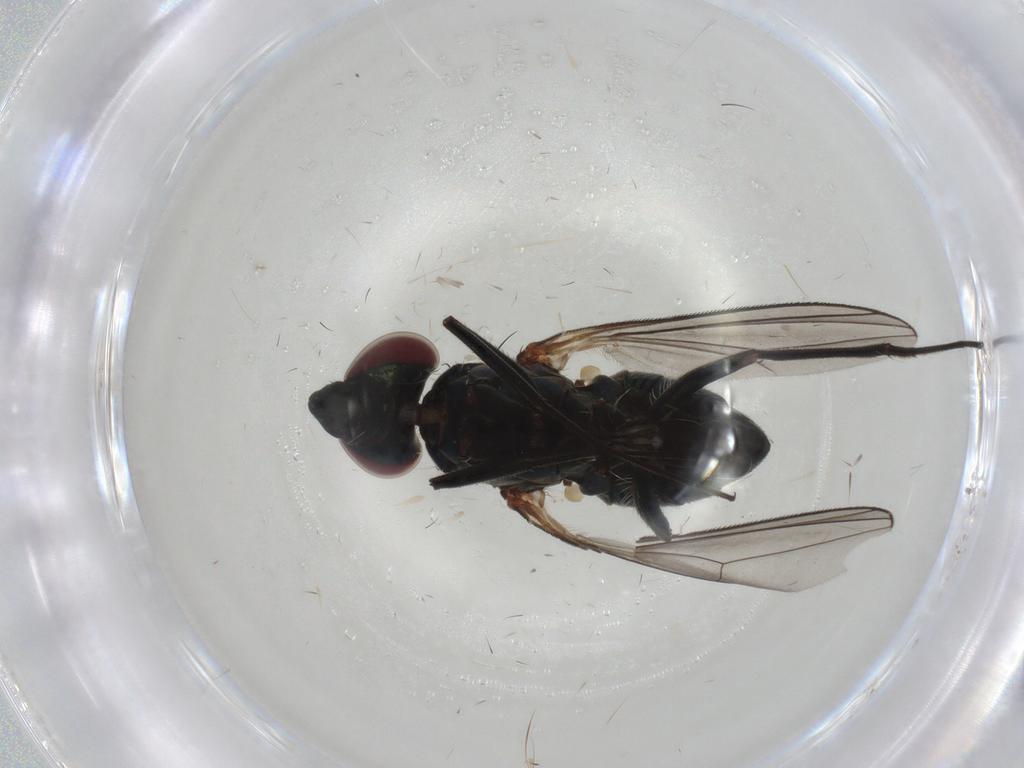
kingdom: Animalia
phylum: Arthropoda
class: Insecta
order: Diptera
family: Dolichopodidae
